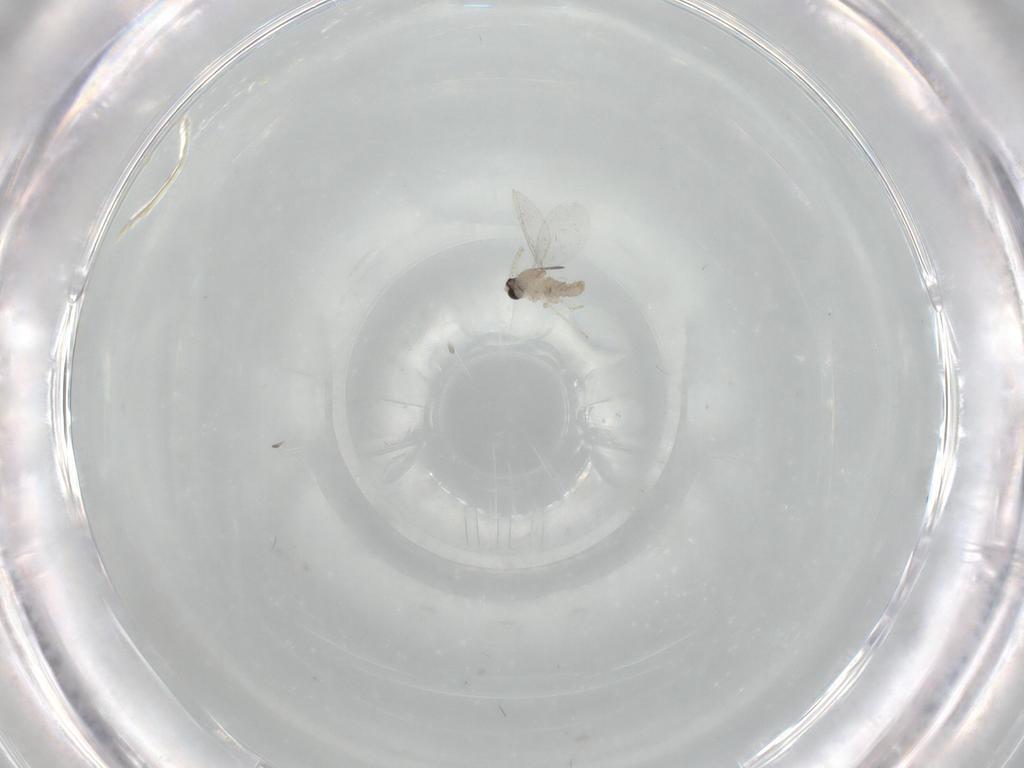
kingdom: Animalia
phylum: Arthropoda
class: Insecta
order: Diptera
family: Cecidomyiidae
